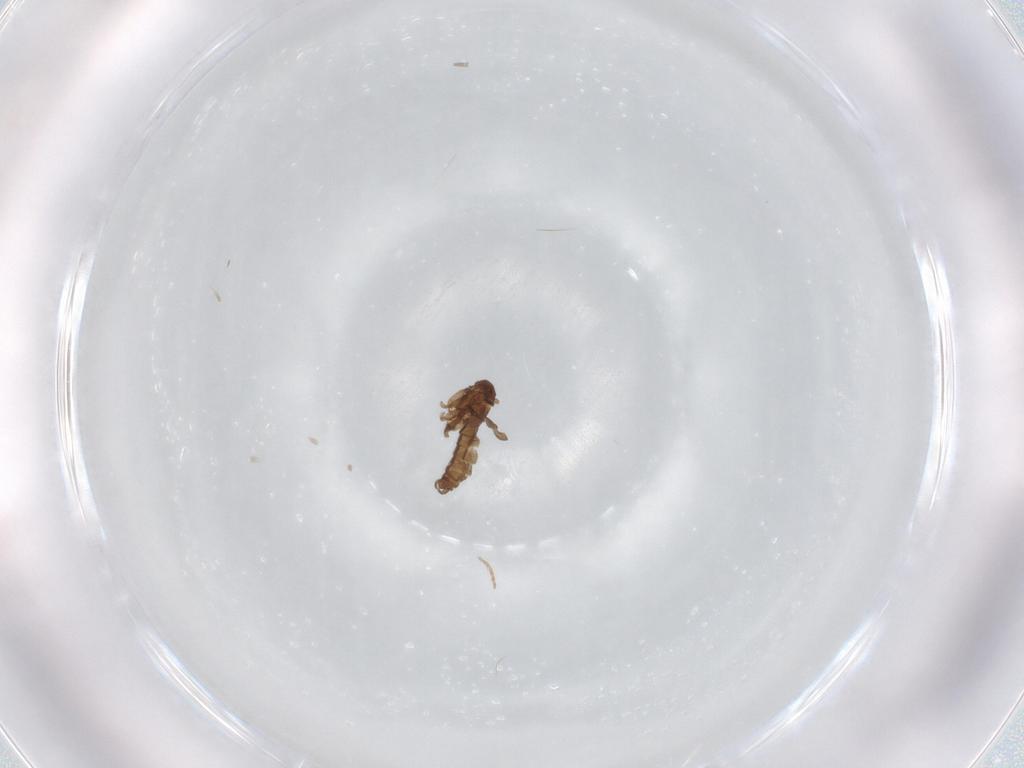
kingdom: Animalia
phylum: Arthropoda
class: Insecta
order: Diptera
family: Sciaridae
